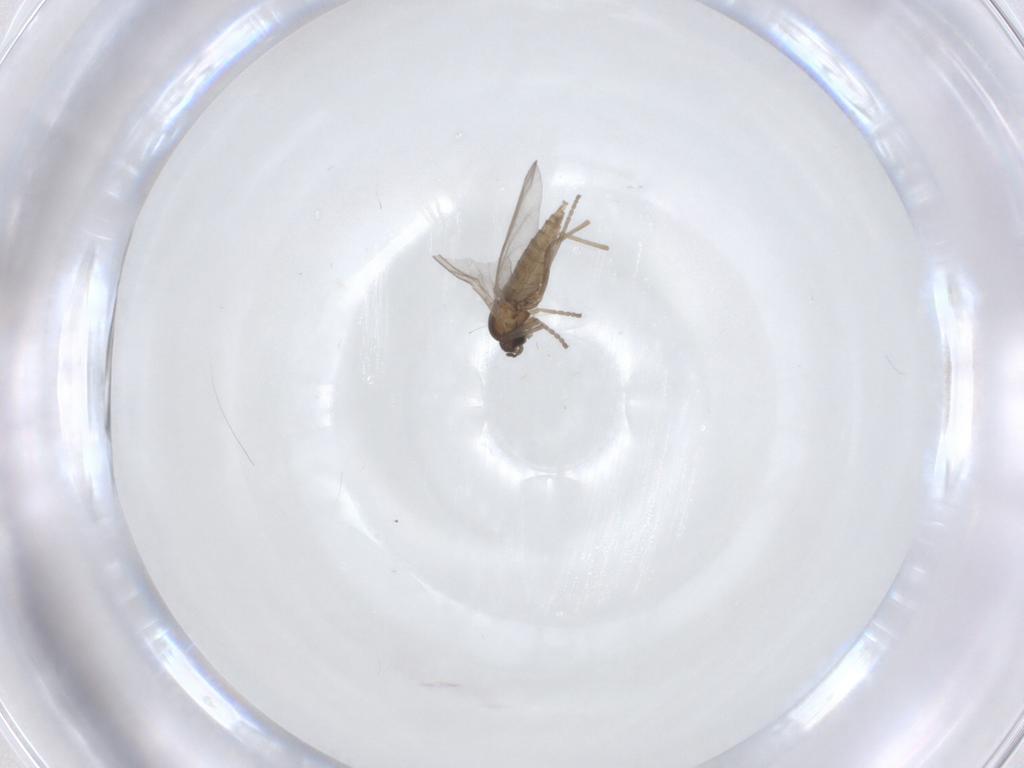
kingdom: Animalia
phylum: Arthropoda
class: Insecta
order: Diptera
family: Cecidomyiidae
